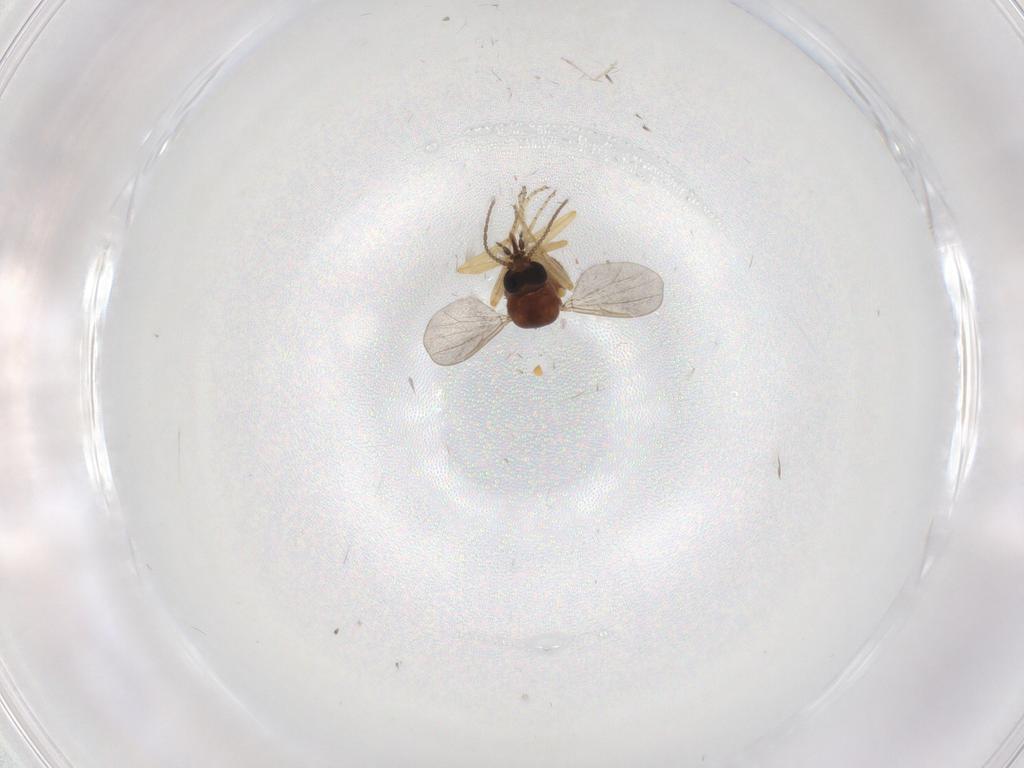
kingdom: Animalia
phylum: Arthropoda
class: Insecta
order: Diptera
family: Ceratopogonidae
